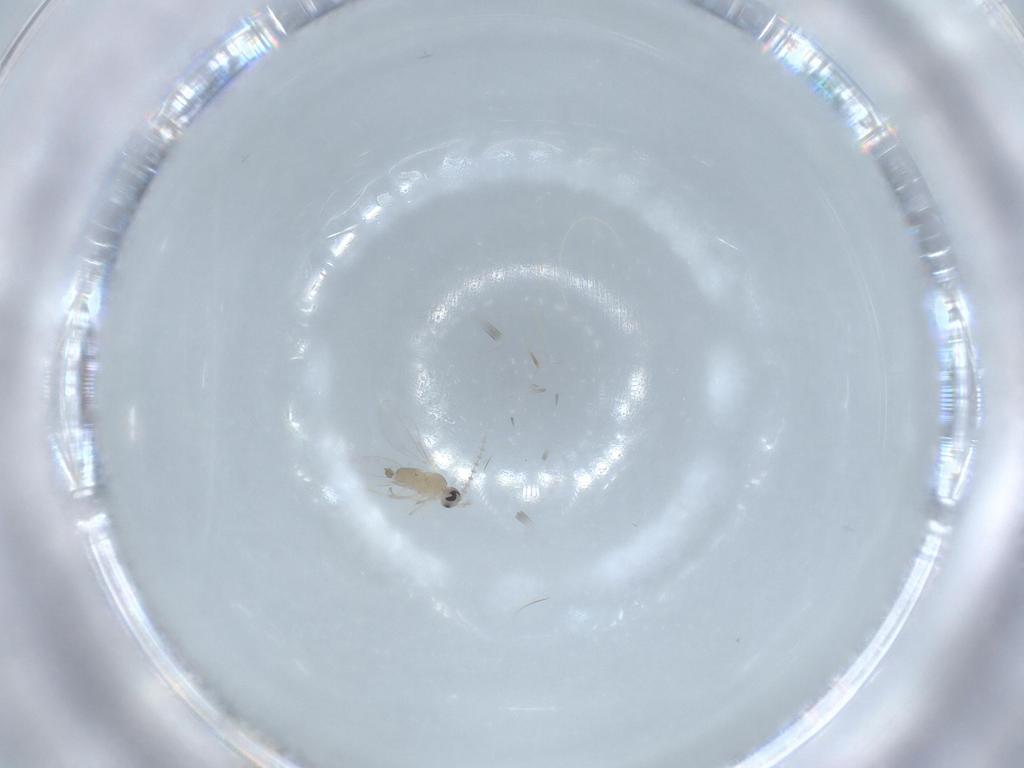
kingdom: Animalia
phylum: Arthropoda
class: Insecta
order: Diptera
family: Cecidomyiidae
